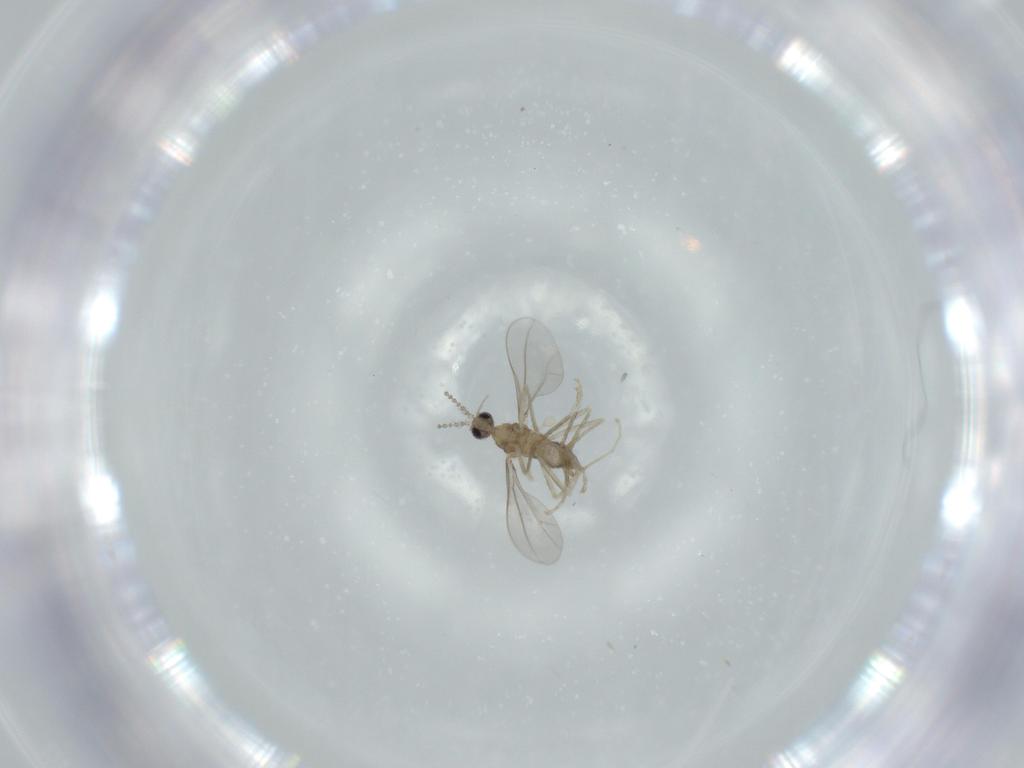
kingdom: Animalia
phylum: Arthropoda
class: Insecta
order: Diptera
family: Cecidomyiidae
